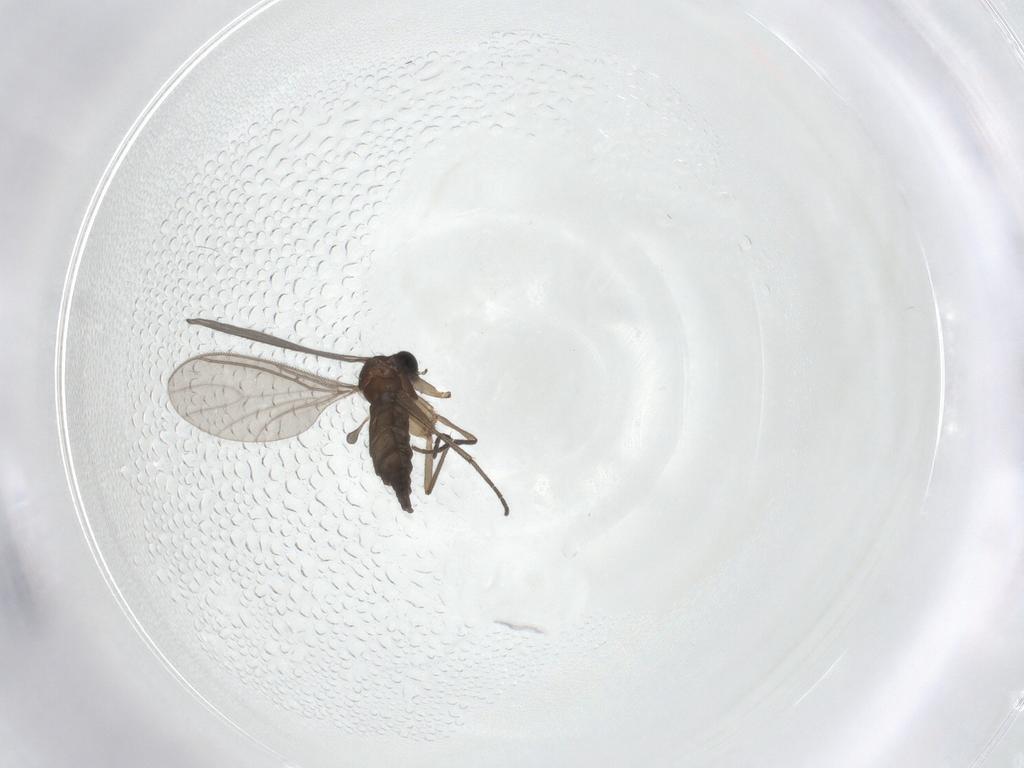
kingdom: Animalia
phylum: Arthropoda
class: Insecta
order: Diptera
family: Sciaridae
